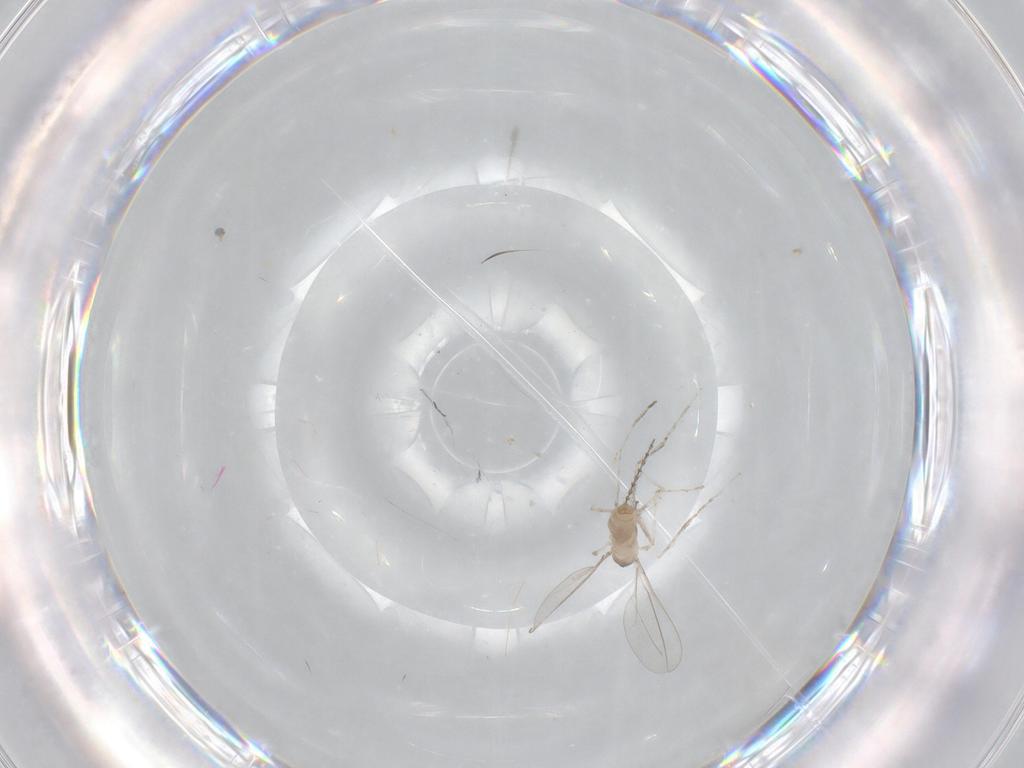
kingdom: Animalia
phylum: Arthropoda
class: Insecta
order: Diptera
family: Cecidomyiidae
